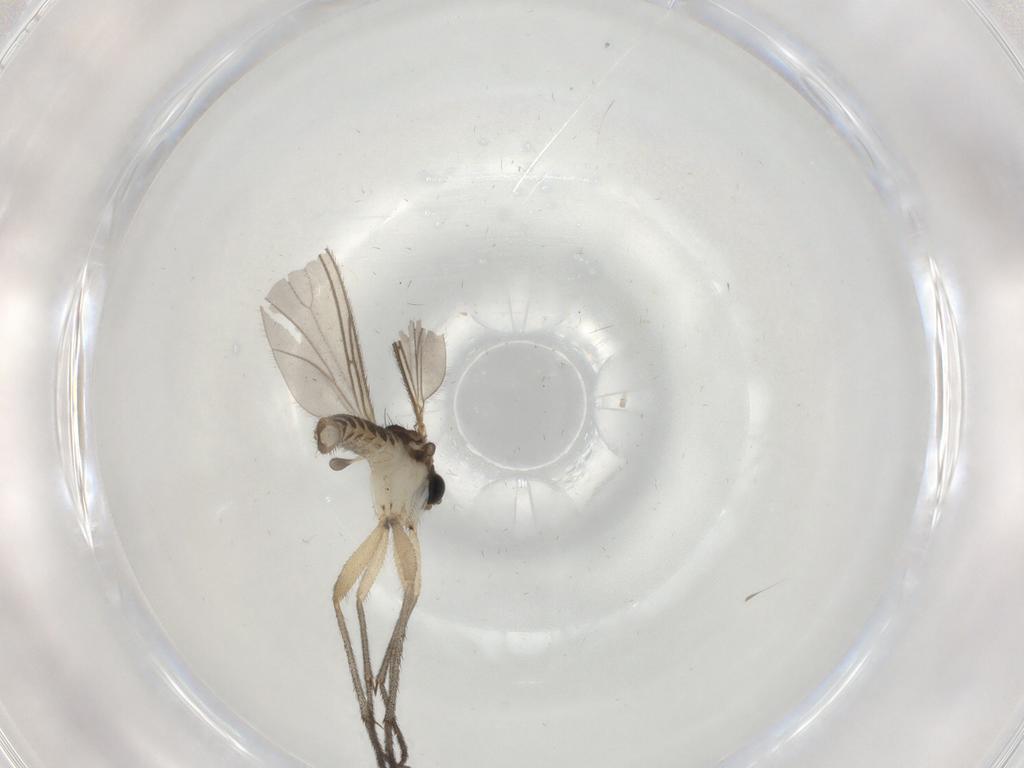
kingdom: Animalia
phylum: Arthropoda
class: Insecta
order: Diptera
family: Sciaridae
